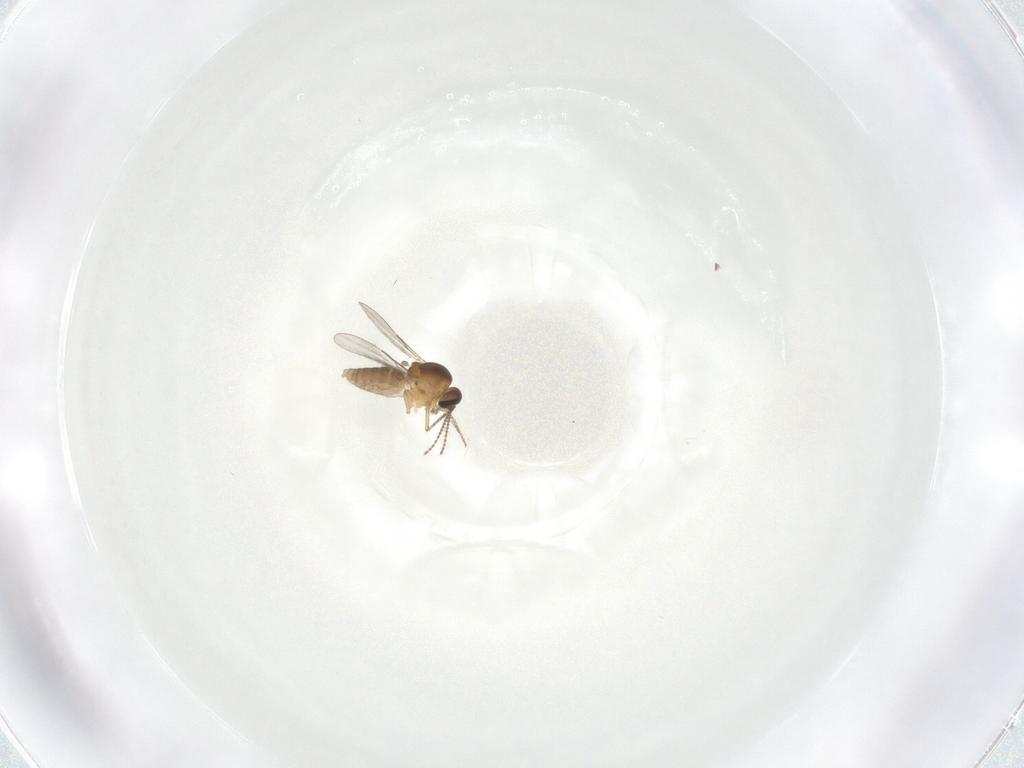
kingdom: Animalia
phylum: Arthropoda
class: Insecta
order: Diptera
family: Ceratopogonidae
